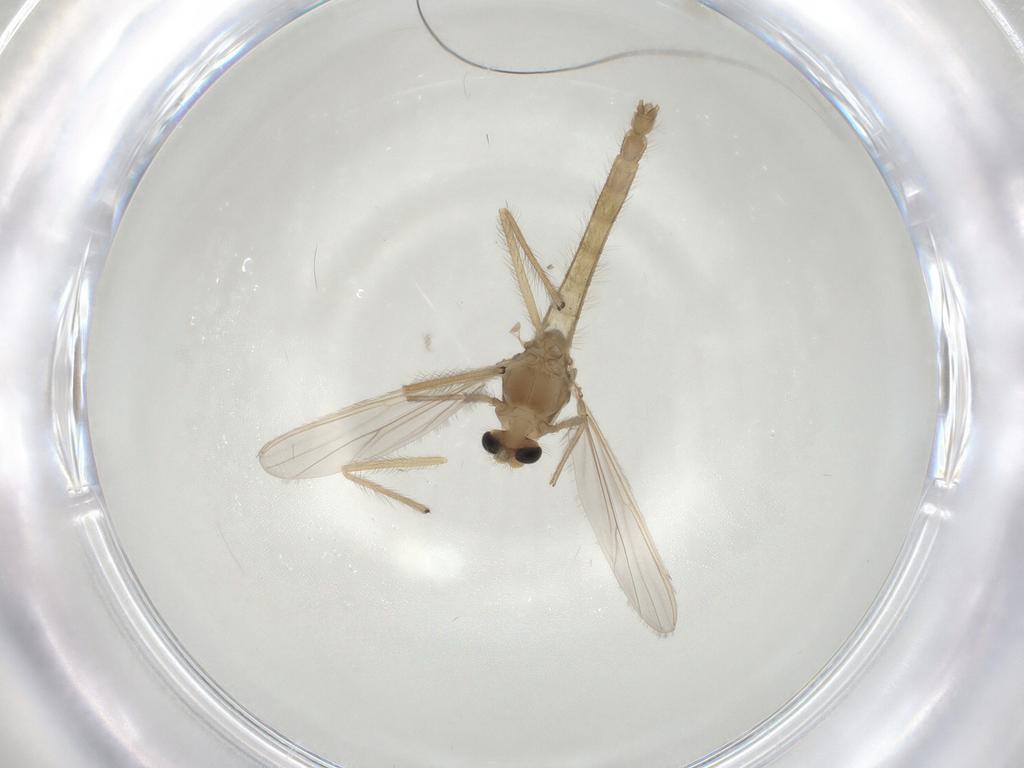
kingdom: Animalia
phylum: Arthropoda
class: Insecta
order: Diptera
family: Chironomidae
